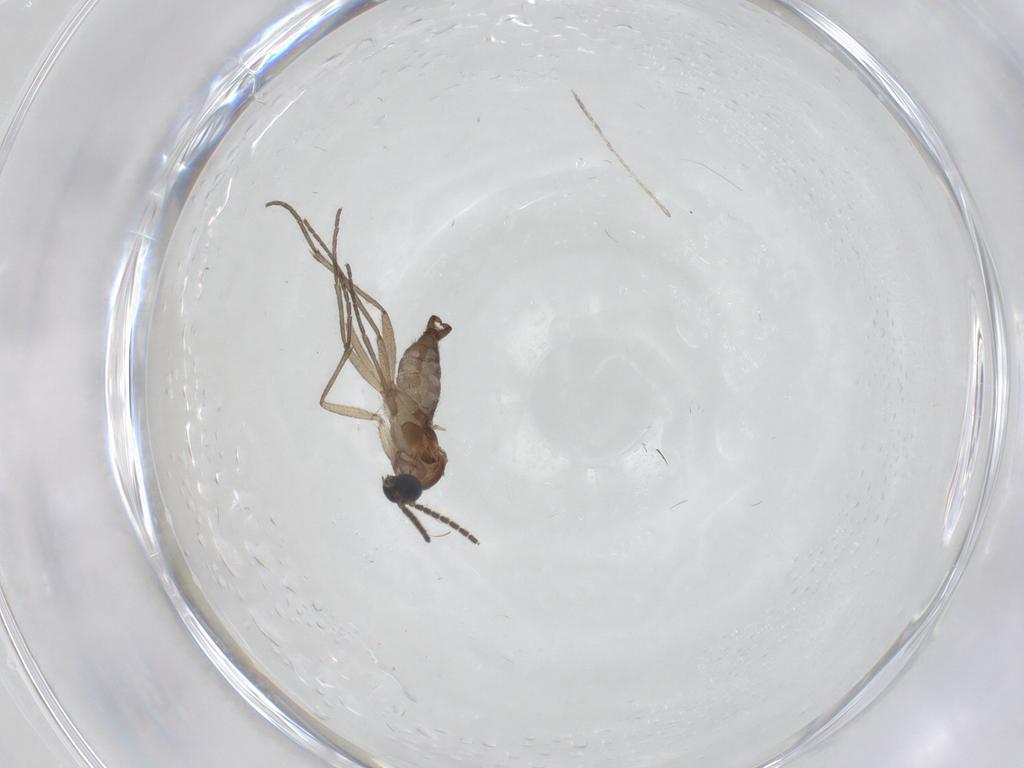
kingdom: Animalia
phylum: Arthropoda
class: Insecta
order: Diptera
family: Sciaridae
